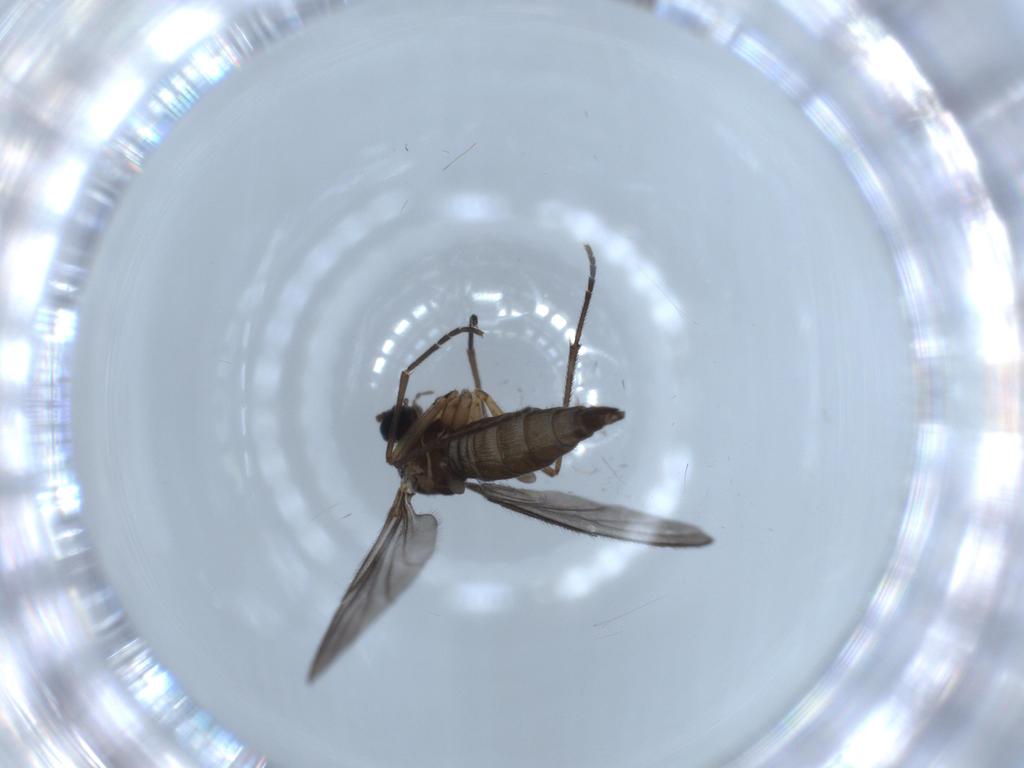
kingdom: Animalia
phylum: Arthropoda
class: Insecta
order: Diptera
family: Sciaridae
